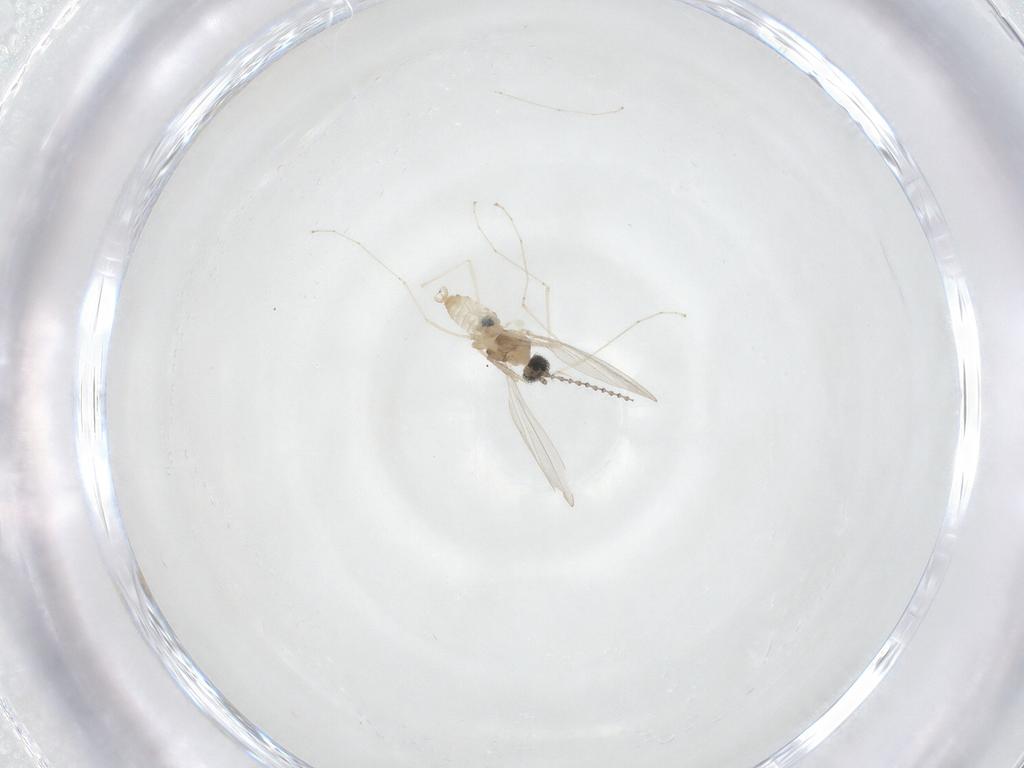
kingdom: Animalia
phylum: Arthropoda
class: Insecta
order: Diptera
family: Cecidomyiidae
